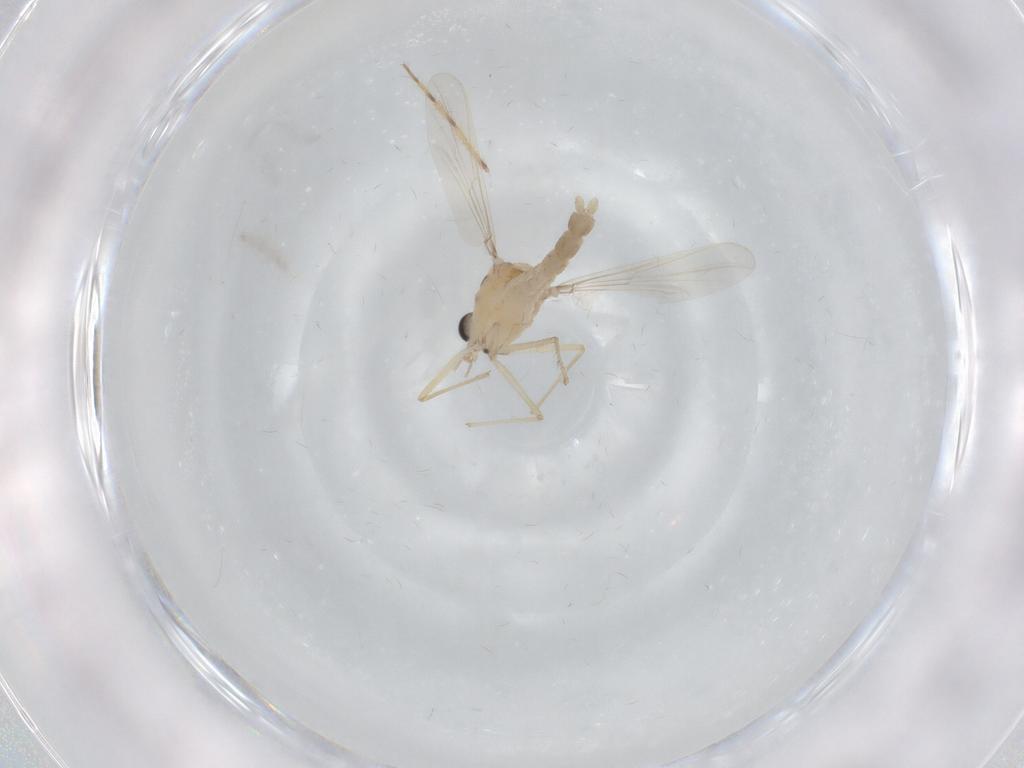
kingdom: Animalia
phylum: Arthropoda
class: Insecta
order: Diptera
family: Chironomidae
